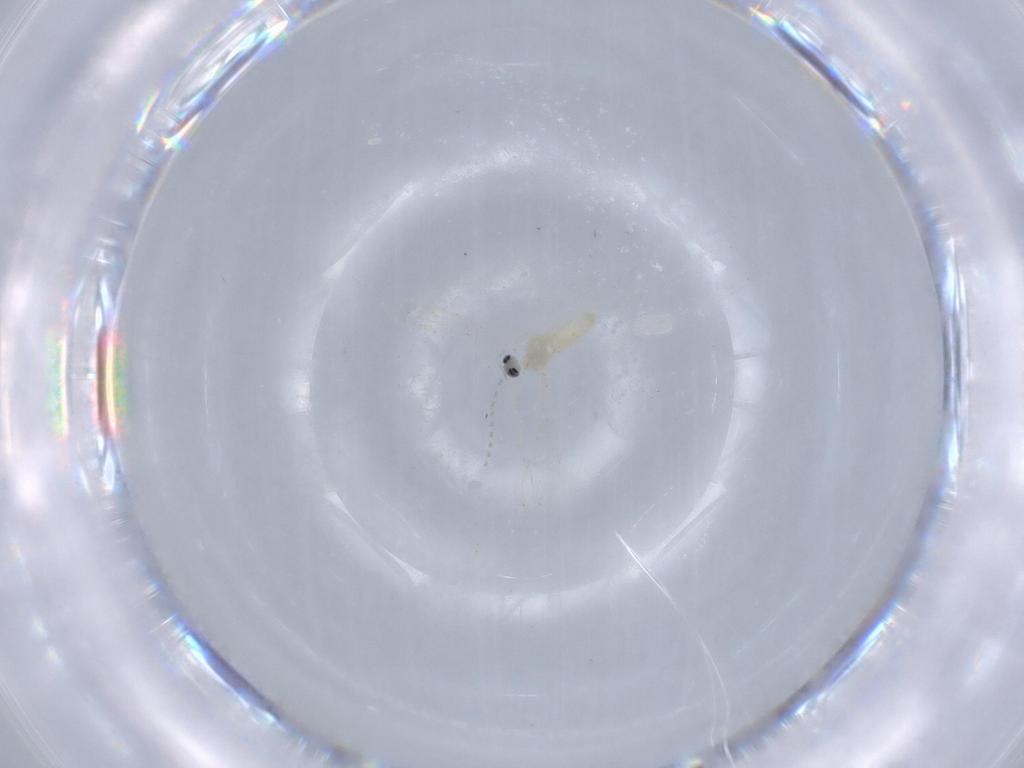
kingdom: Animalia
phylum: Arthropoda
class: Insecta
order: Diptera
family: Cecidomyiidae
